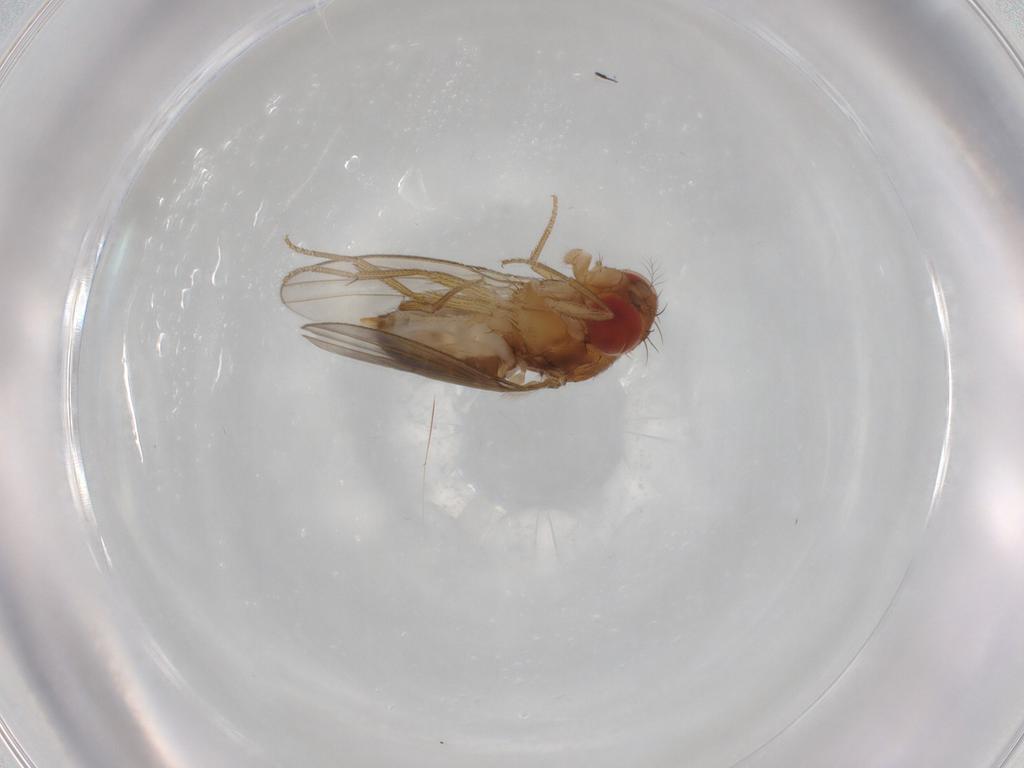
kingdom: Animalia
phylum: Arthropoda
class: Insecta
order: Diptera
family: Drosophilidae
